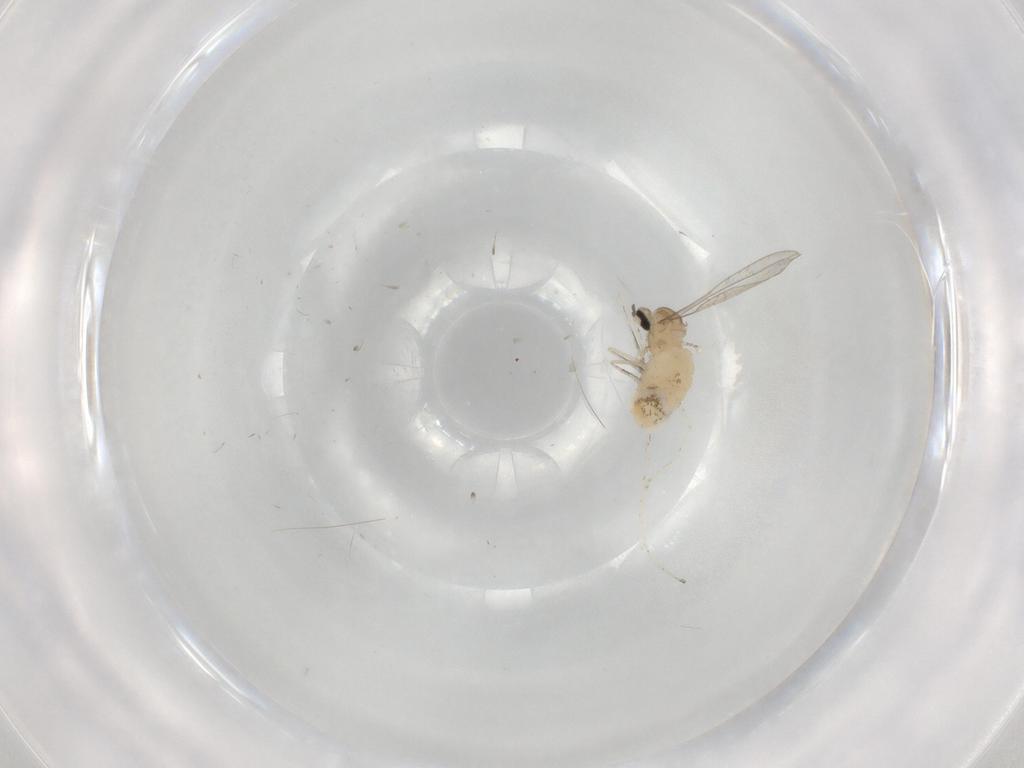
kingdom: Animalia
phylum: Arthropoda
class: Insecta
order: Diptera
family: Cecidomyiidae
